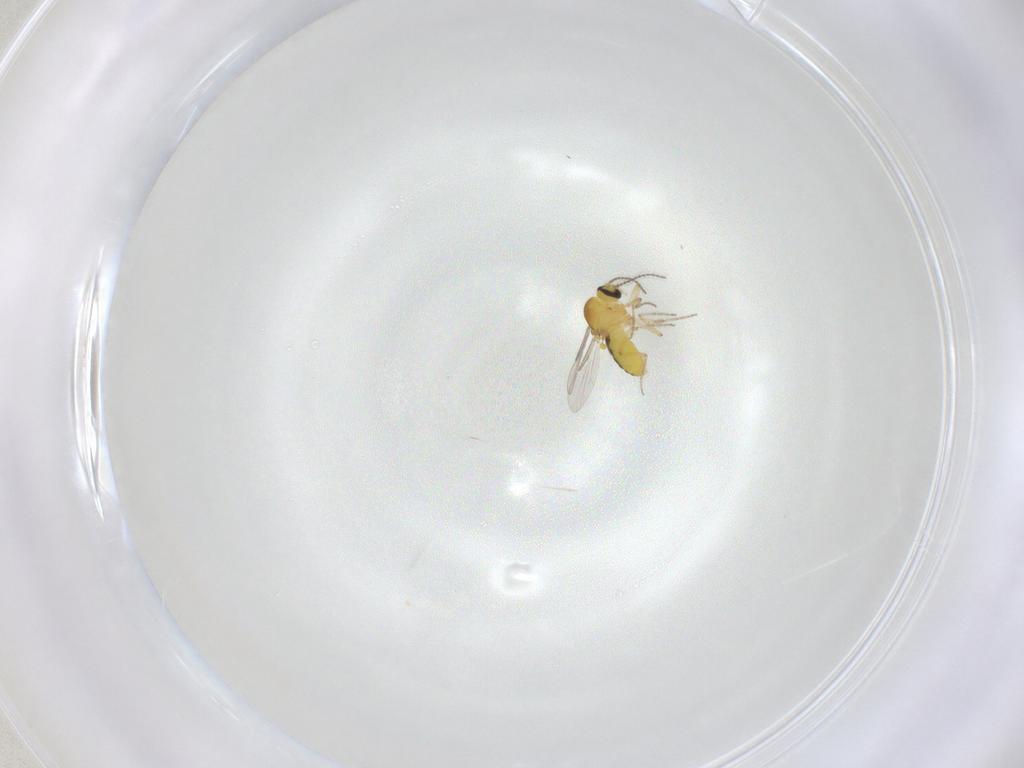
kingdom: Animalia
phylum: Arthropoda
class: Insecta
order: Diptera
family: Ceratopogonidae
